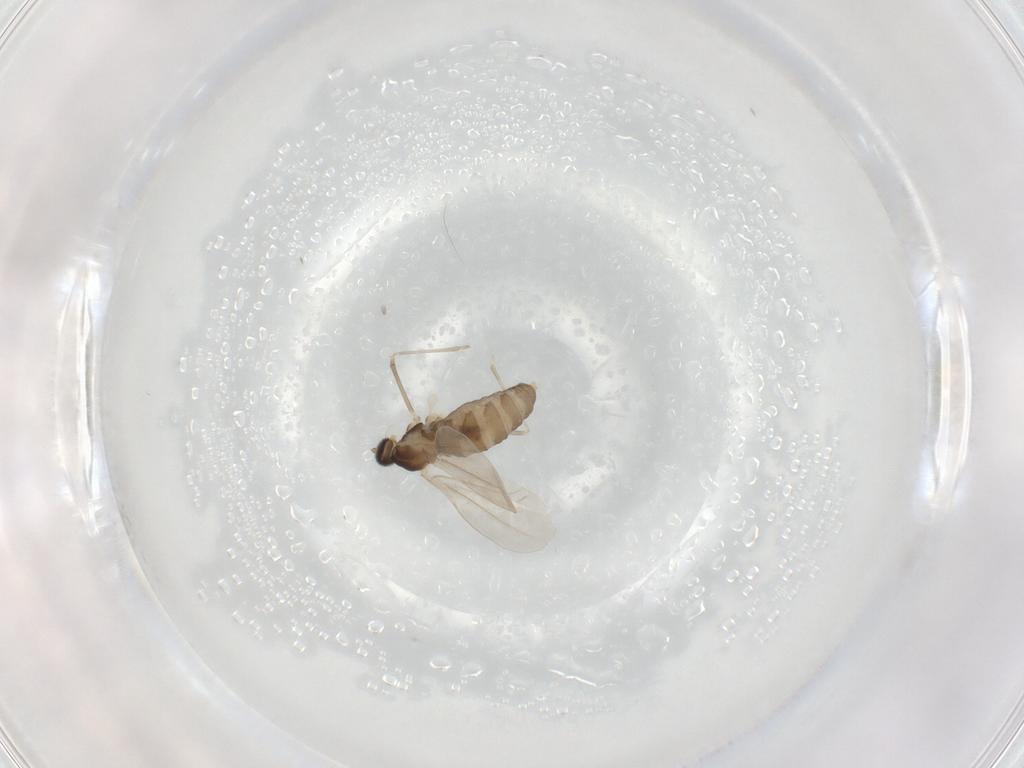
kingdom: Animalia
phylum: Arthropoda
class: Insecta
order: Diptera
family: Cecidomyiidae
